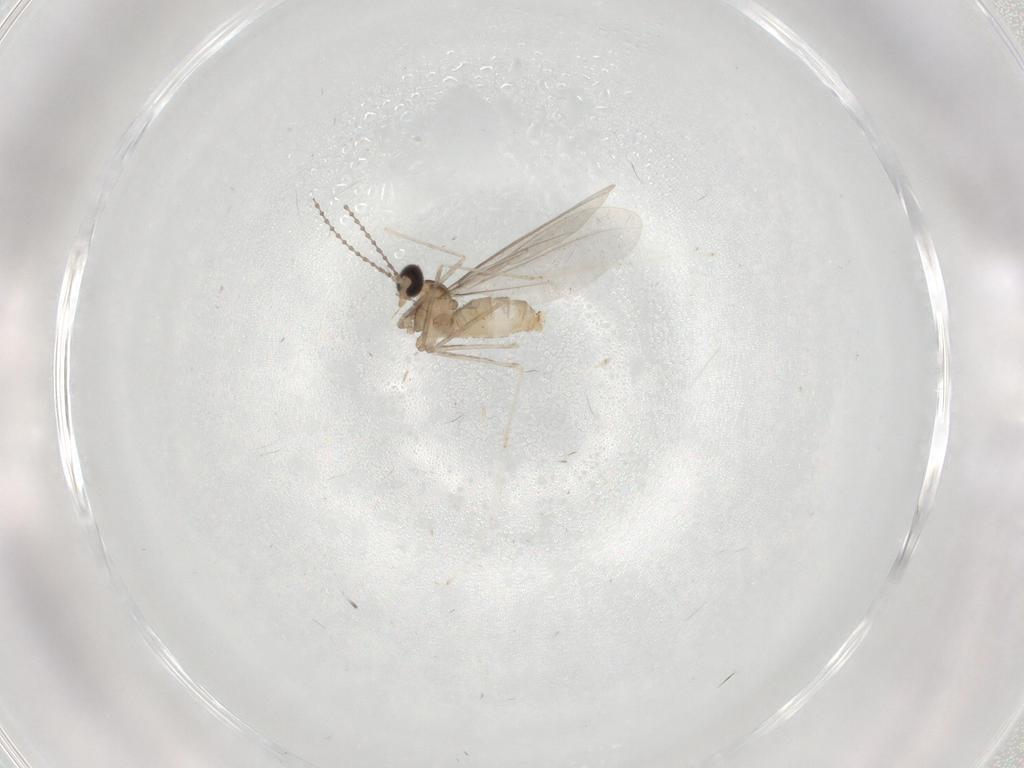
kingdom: Animalia
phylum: Arthropoda
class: Insecta
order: Diptera
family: Cecidomyiidae
